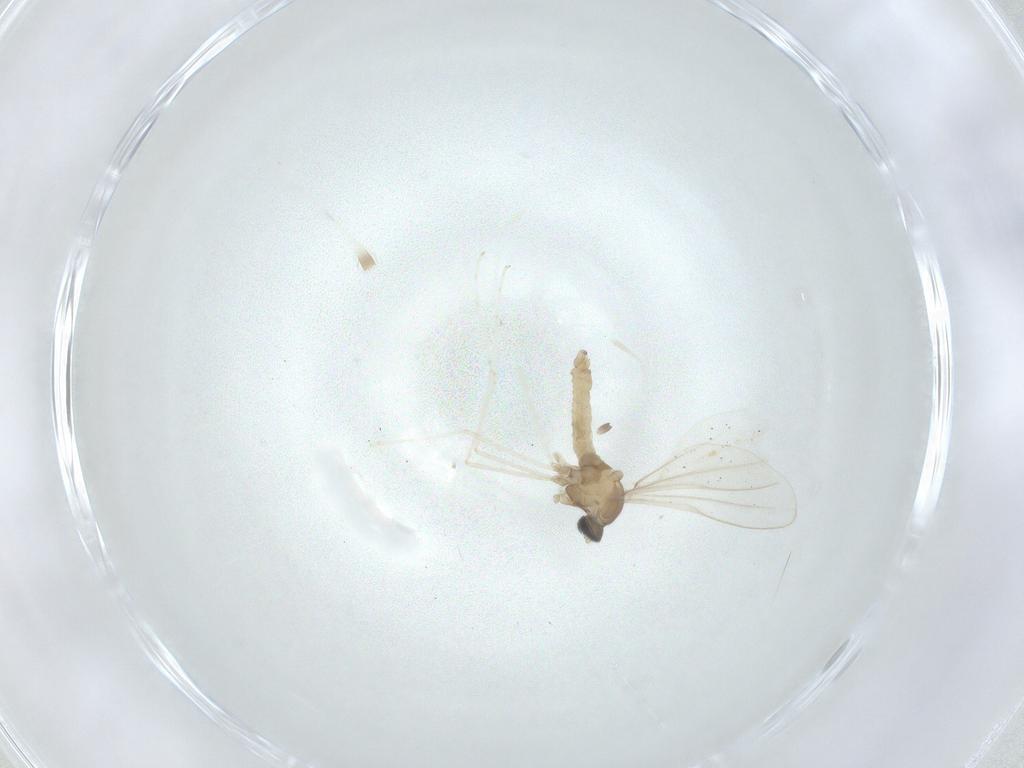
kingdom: Animalia
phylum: Arthropoda
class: Insecta
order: Diptera
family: Cecidomyiidae
